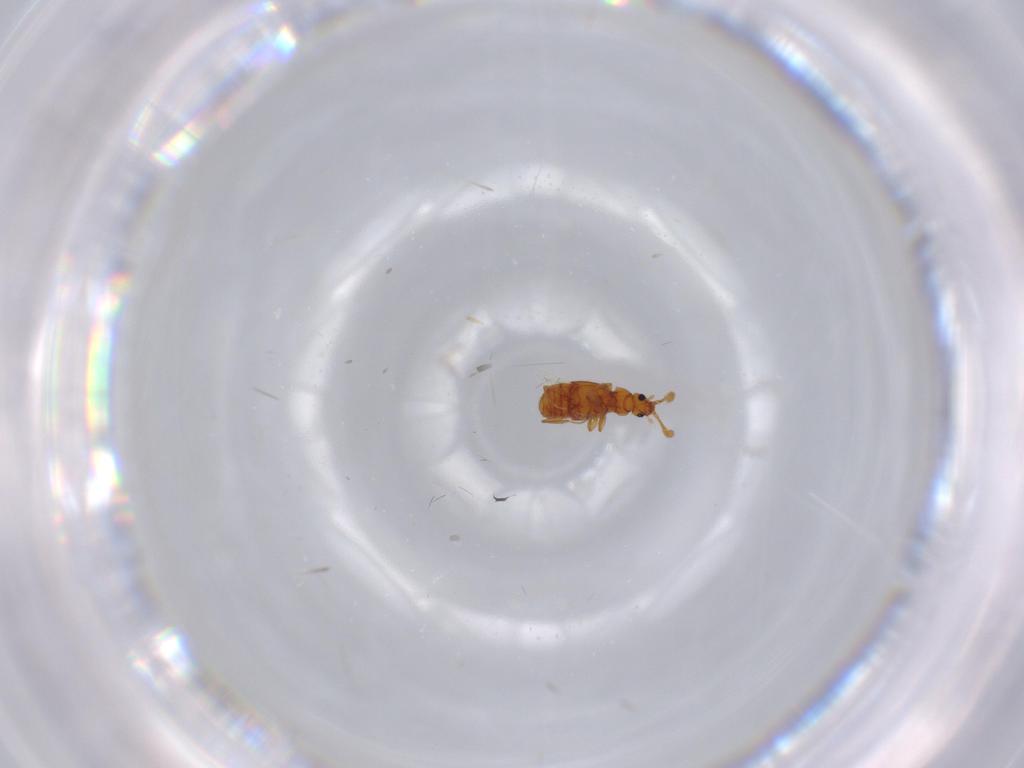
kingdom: Animalia
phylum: Arthropoda
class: Insecta
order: Coleoptera
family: Staphylinidae
